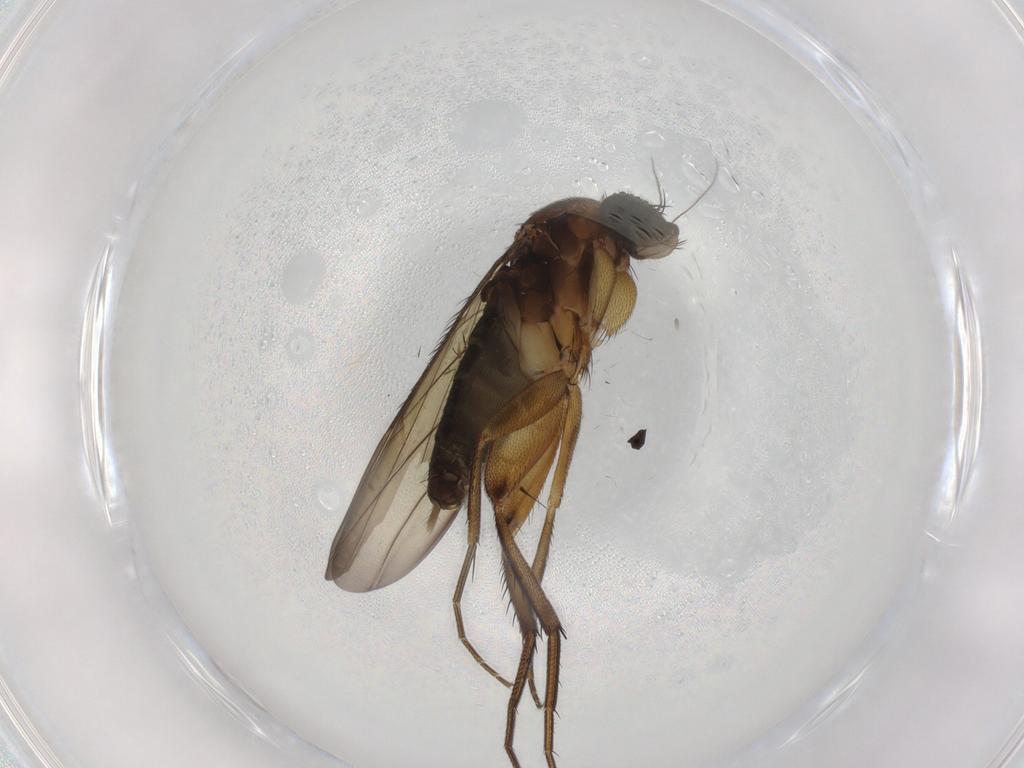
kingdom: Animalia
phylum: Arthropoda
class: Insecta
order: Diptera
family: Phoridae
